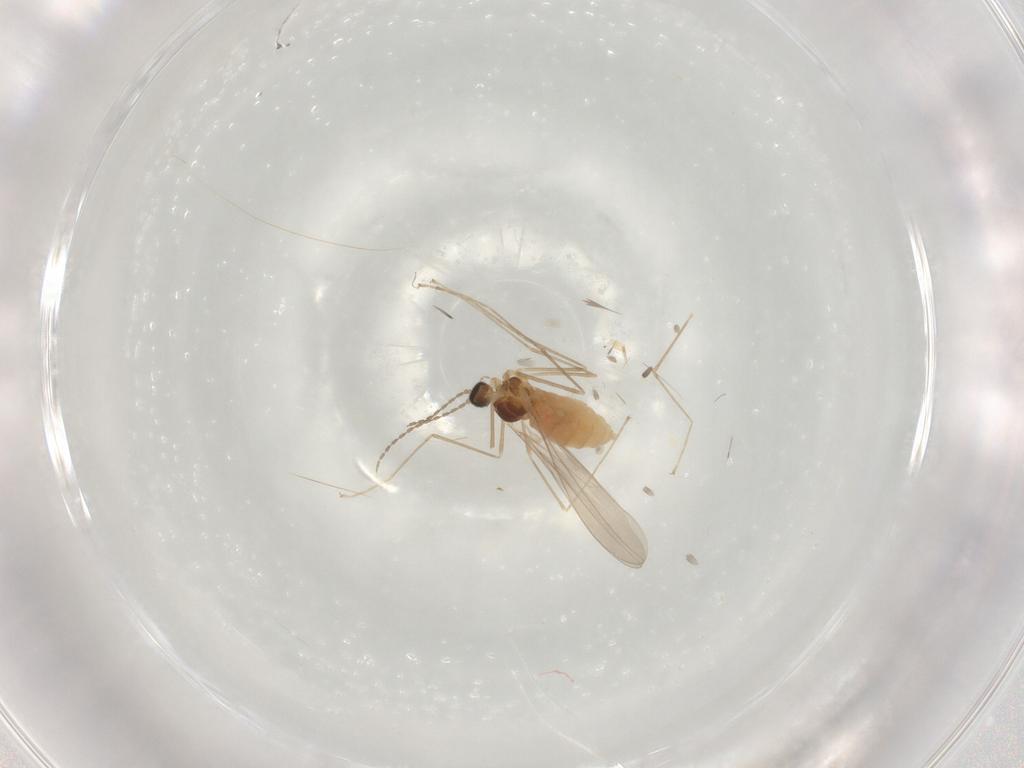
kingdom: Animalia
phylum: Arthropoda
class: Insecta
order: Diptera
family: Cecidomyiidae
